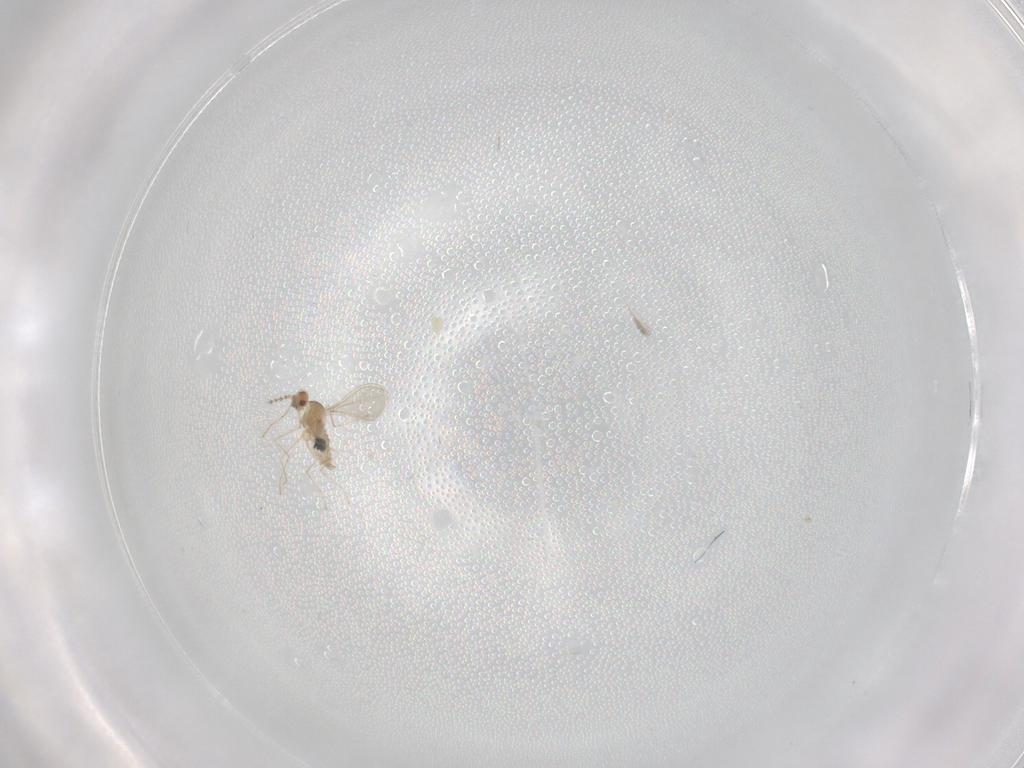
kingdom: Animalia
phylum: Arthropoda
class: Insecta
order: Diptera
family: Cecidomyiidae
